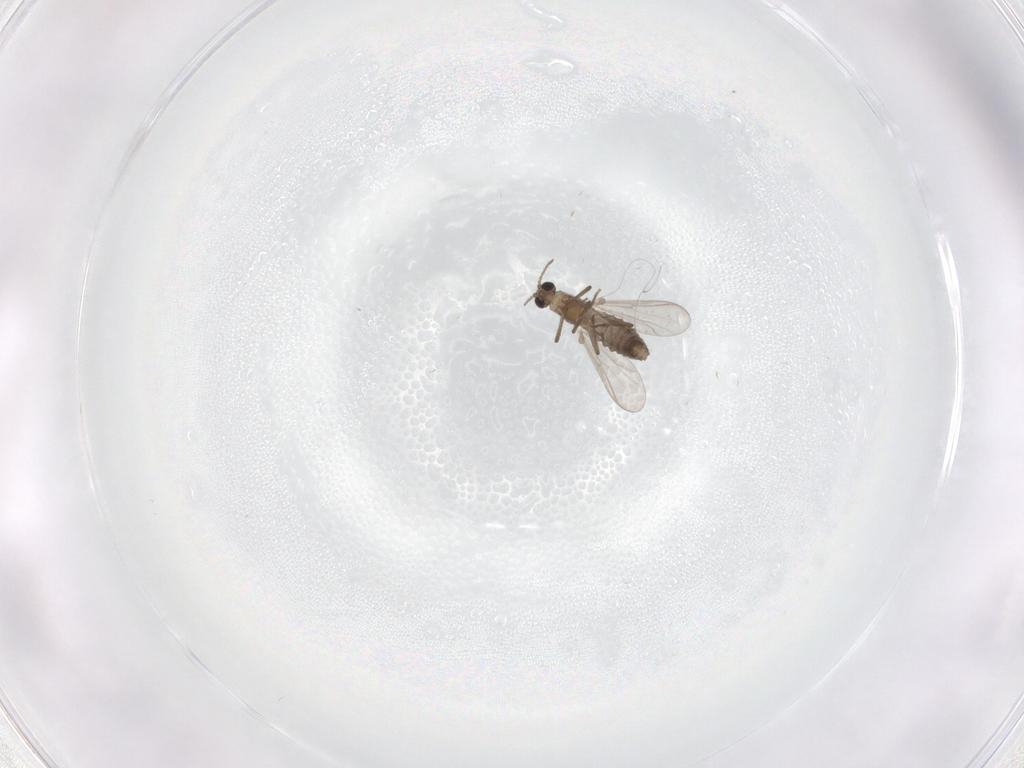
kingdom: Animalia
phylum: Arthropoda
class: Insecta
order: Diptera
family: Chironomidae
